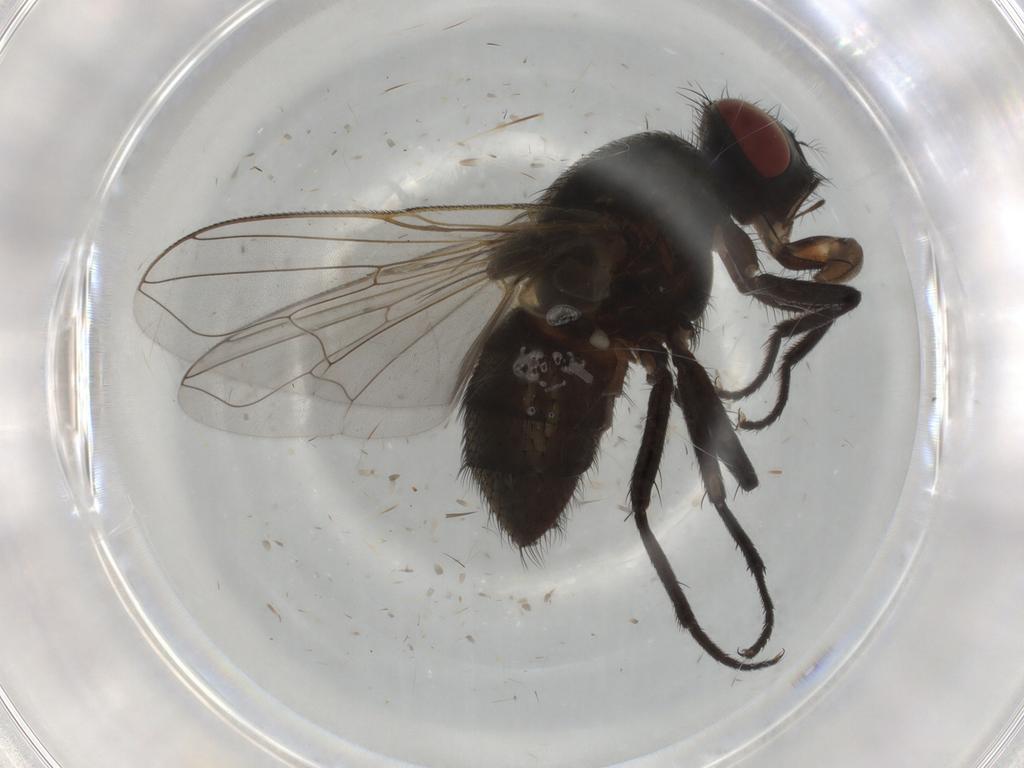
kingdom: Animalia
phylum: Arthropoda
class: Insecta
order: Diptera
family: Muscidae
